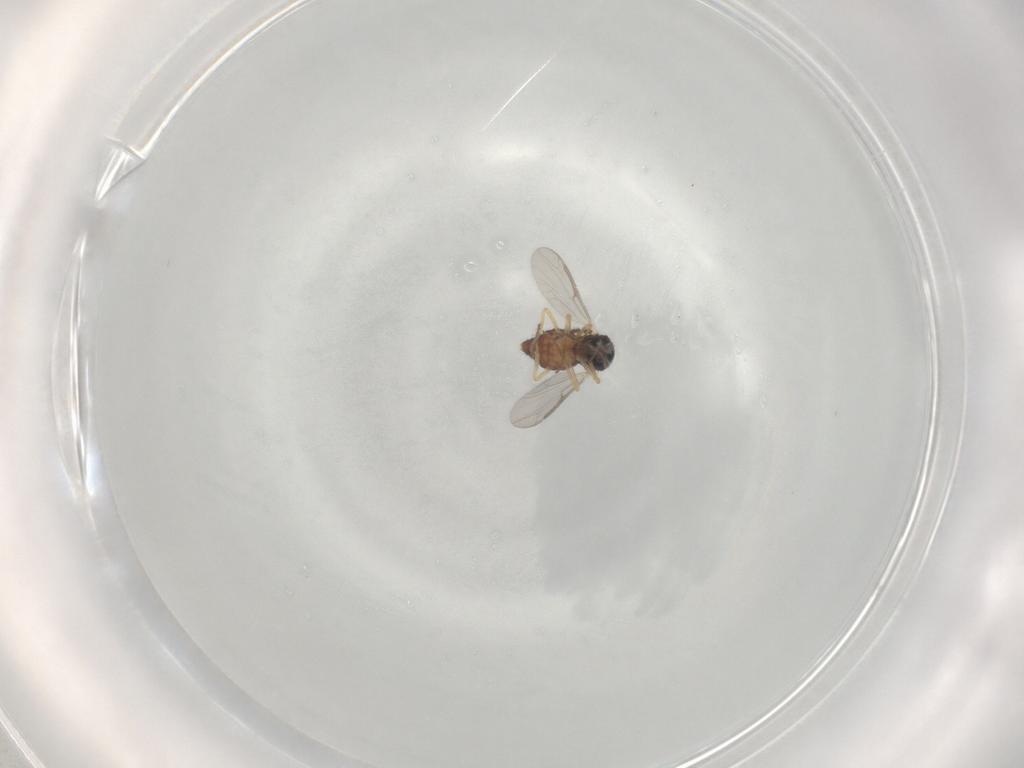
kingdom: Animalia
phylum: Arthropoda
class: Insecta
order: Diptera
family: Ceratopogonidae
